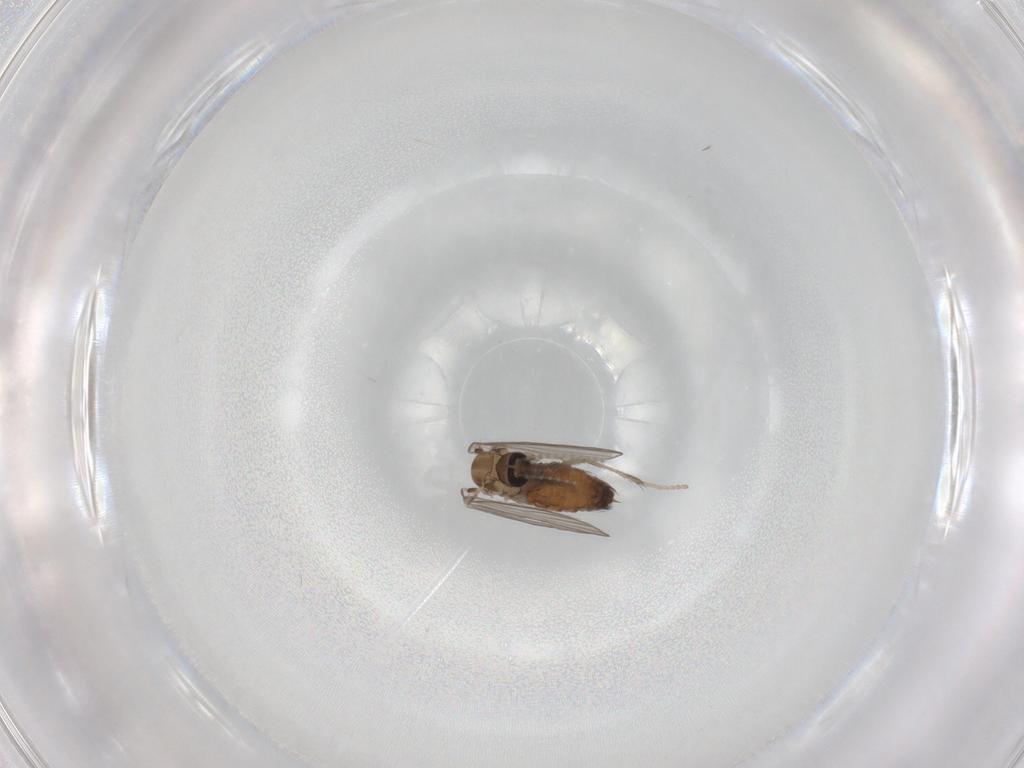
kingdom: Animalia
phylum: Arthropoda
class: Insecta
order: Diptera
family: Psychodidae
